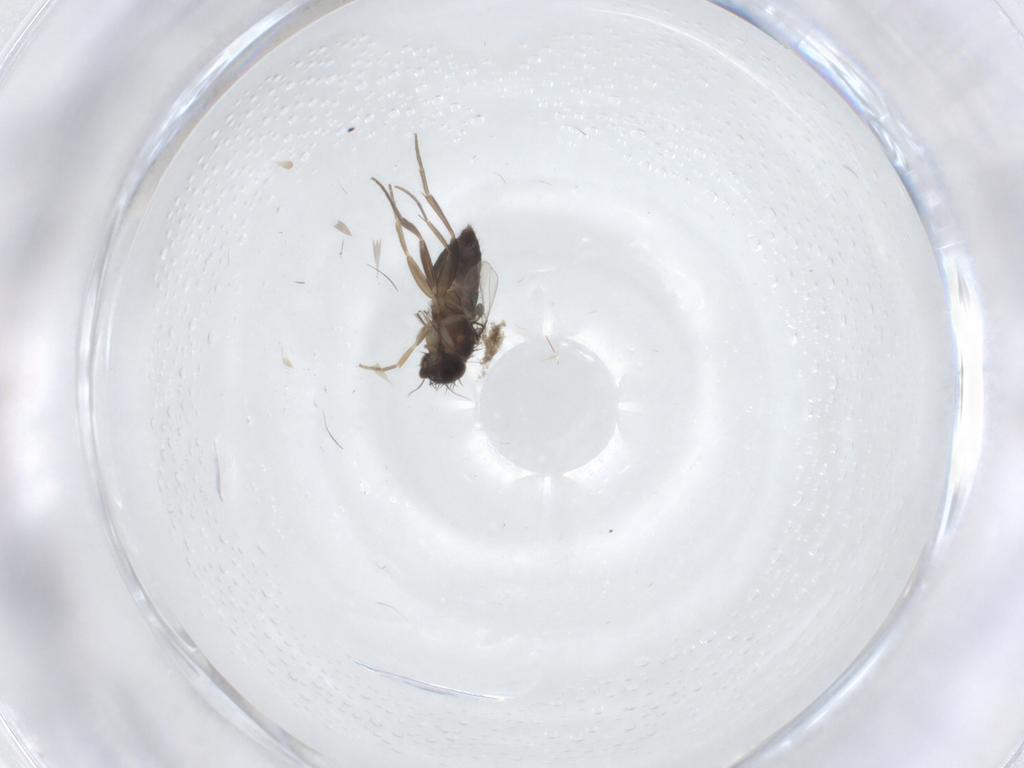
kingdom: Animalia
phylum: Arthropoda
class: Insecta
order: Diptera
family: Phoridae
